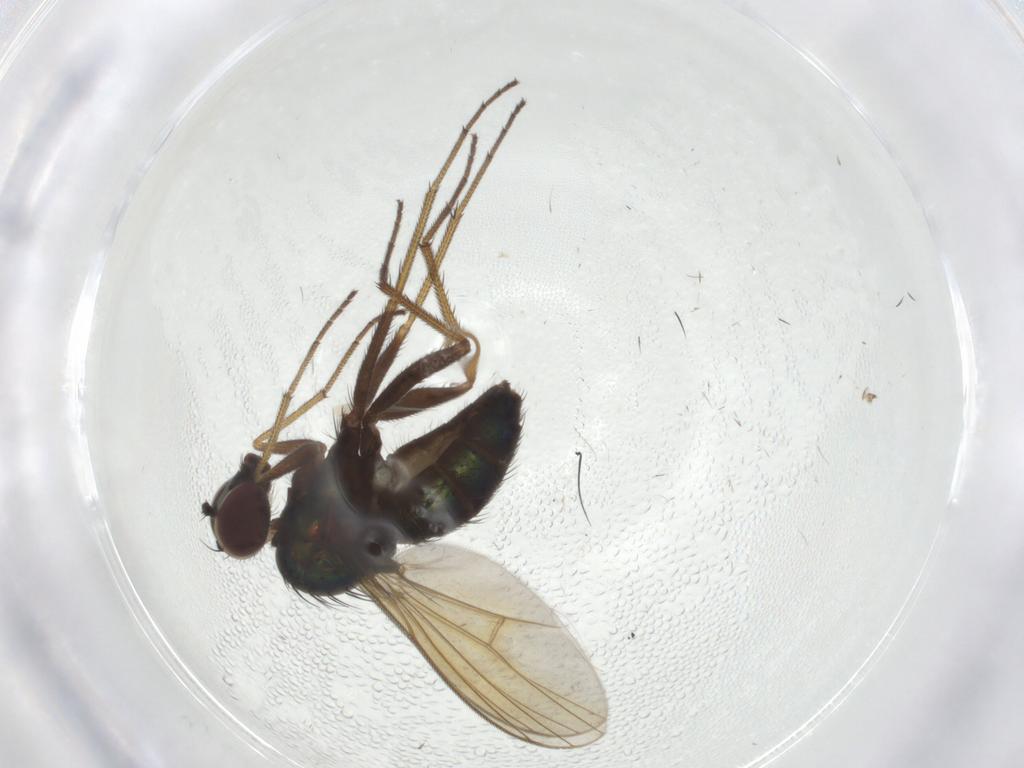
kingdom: Animalia
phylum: Arthropoda
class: Insecta
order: Diptera
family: Dolichopodidae
